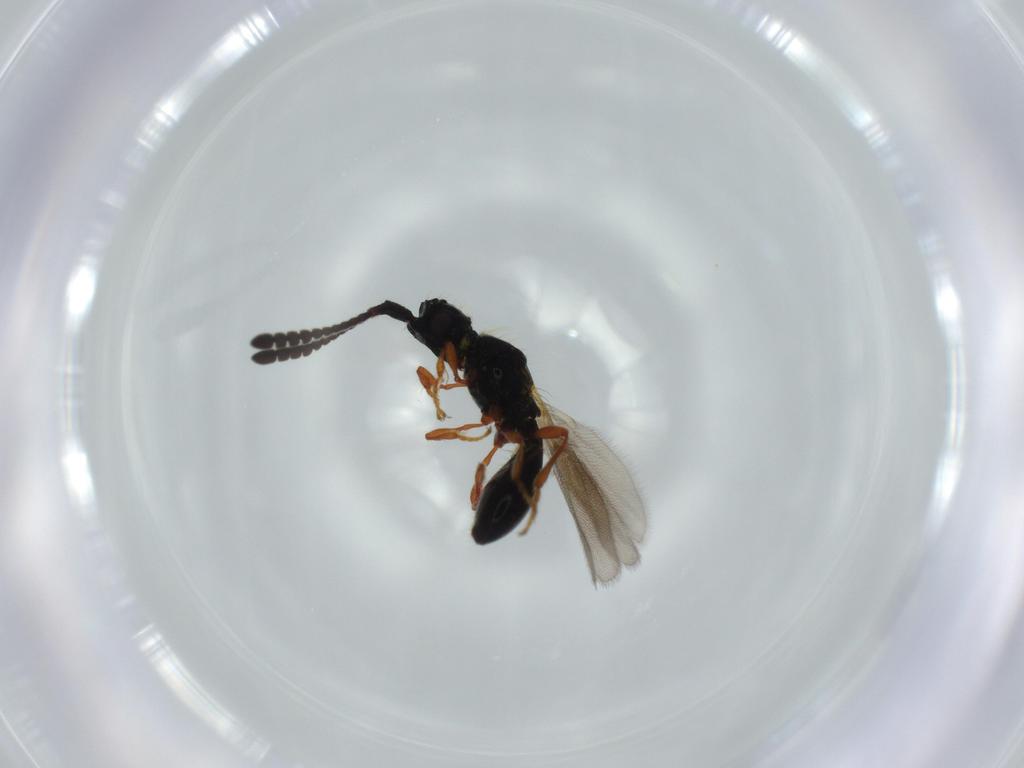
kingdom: Animalia
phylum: Arthropoda
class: Insecta
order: Hymenoptera
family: Diapriidae
